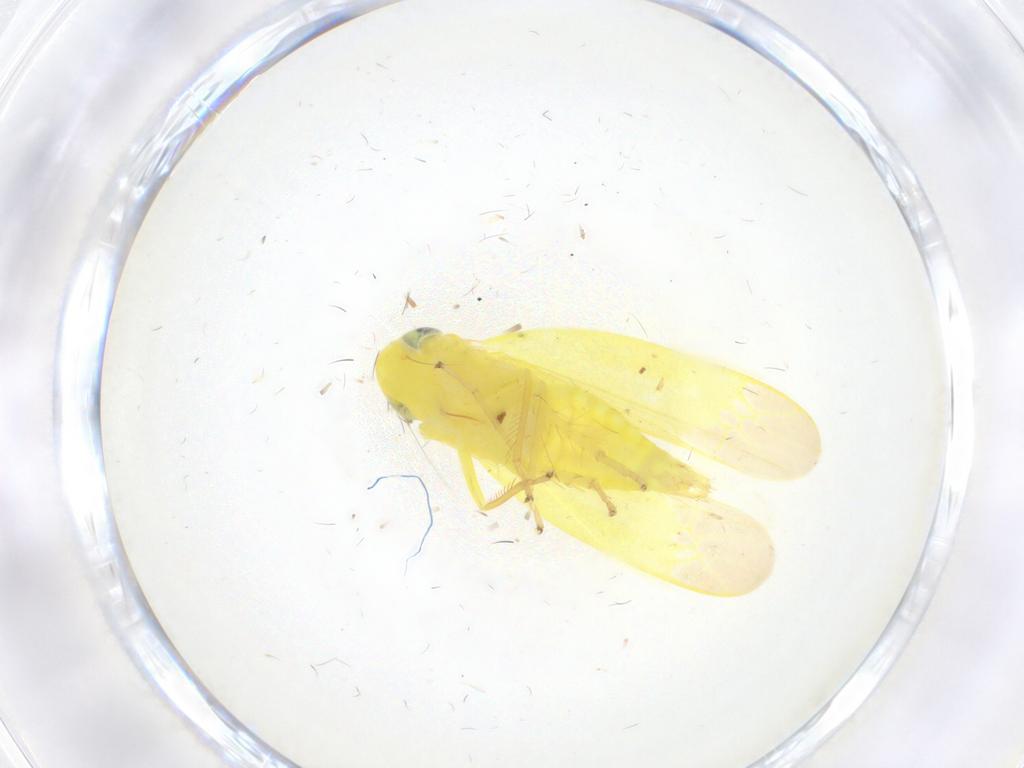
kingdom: Animalia
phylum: Arthropoda
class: Insecta
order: Hemiptera
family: Cicadellidae
